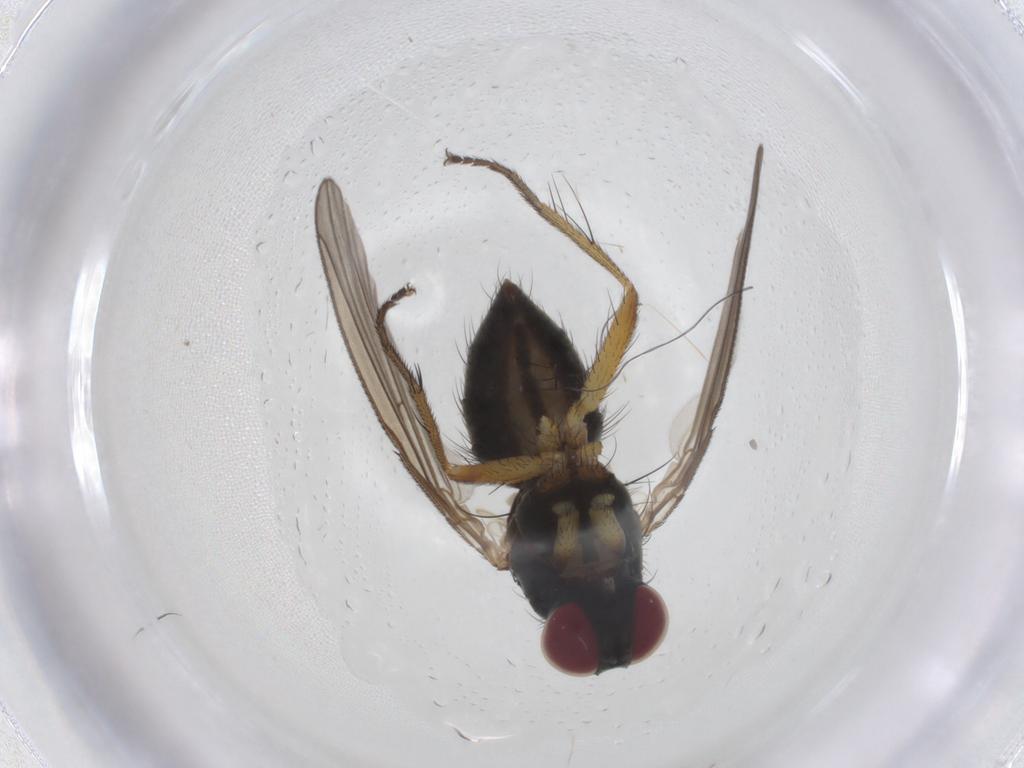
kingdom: Animalia
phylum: Arthropoda
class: Insecta
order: Diptera
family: Muscidae
